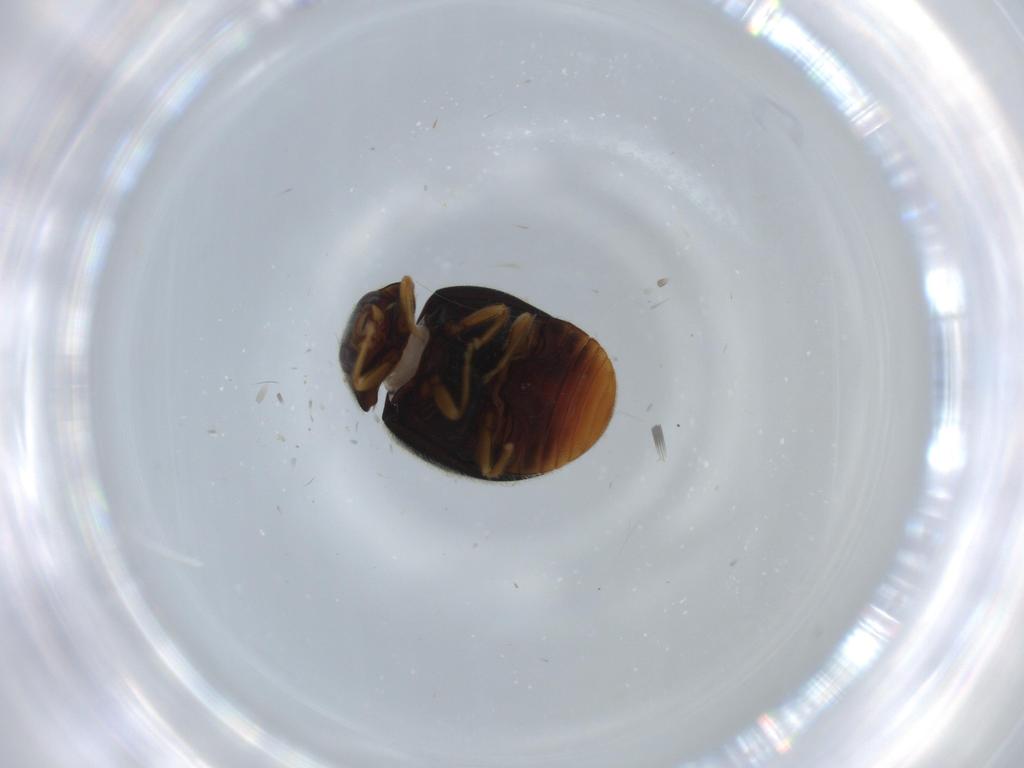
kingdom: Animalia
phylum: Arthropoda
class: Insecta
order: Coleoptera
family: Coccinellidae
